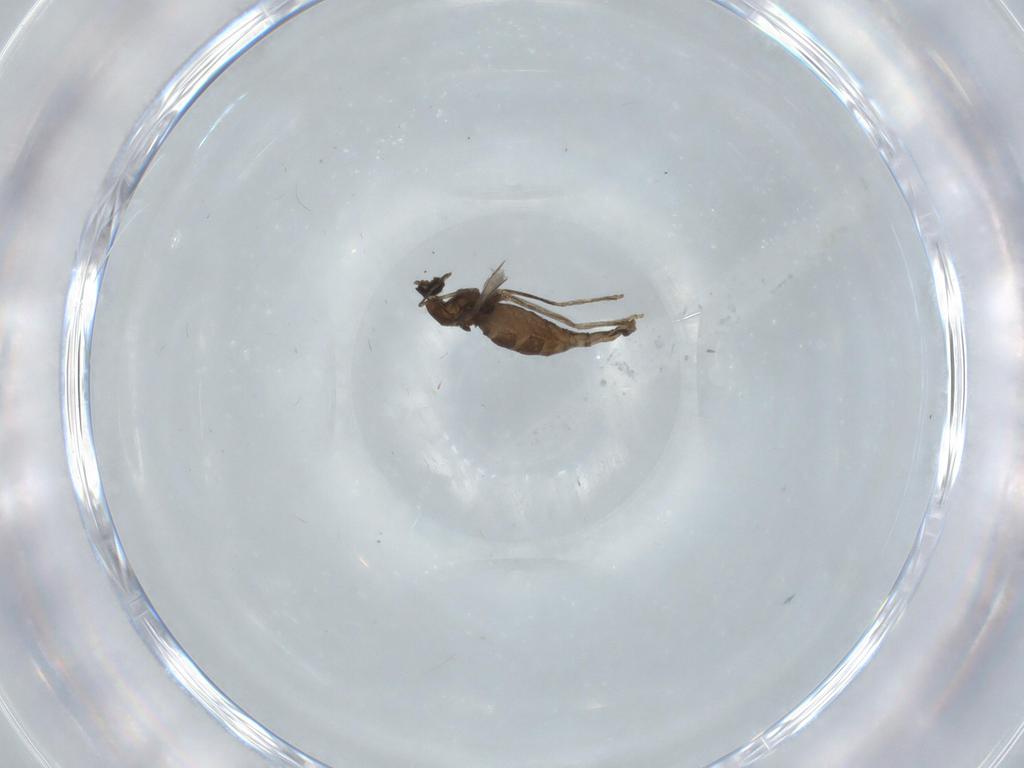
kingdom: Animalia
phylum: Arthropoda
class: Insecta
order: Diptera
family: Cecidomyiidae
